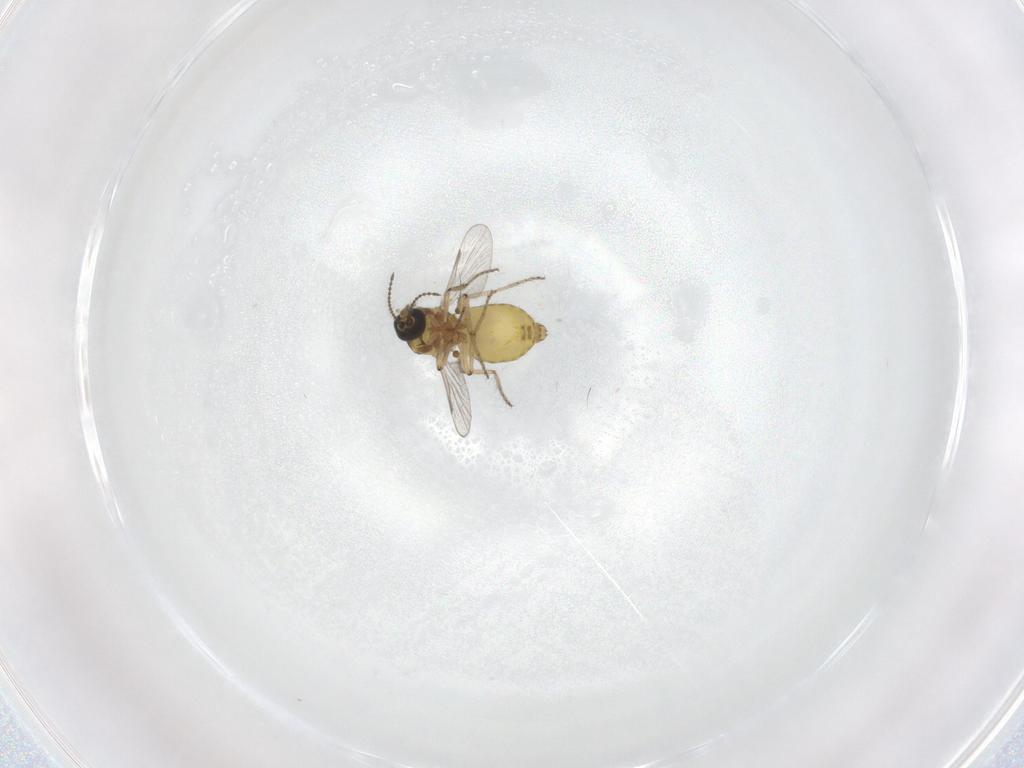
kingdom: Animalia
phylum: Arthropoda
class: Insecta
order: Diptera
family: Ceratopogonidae
